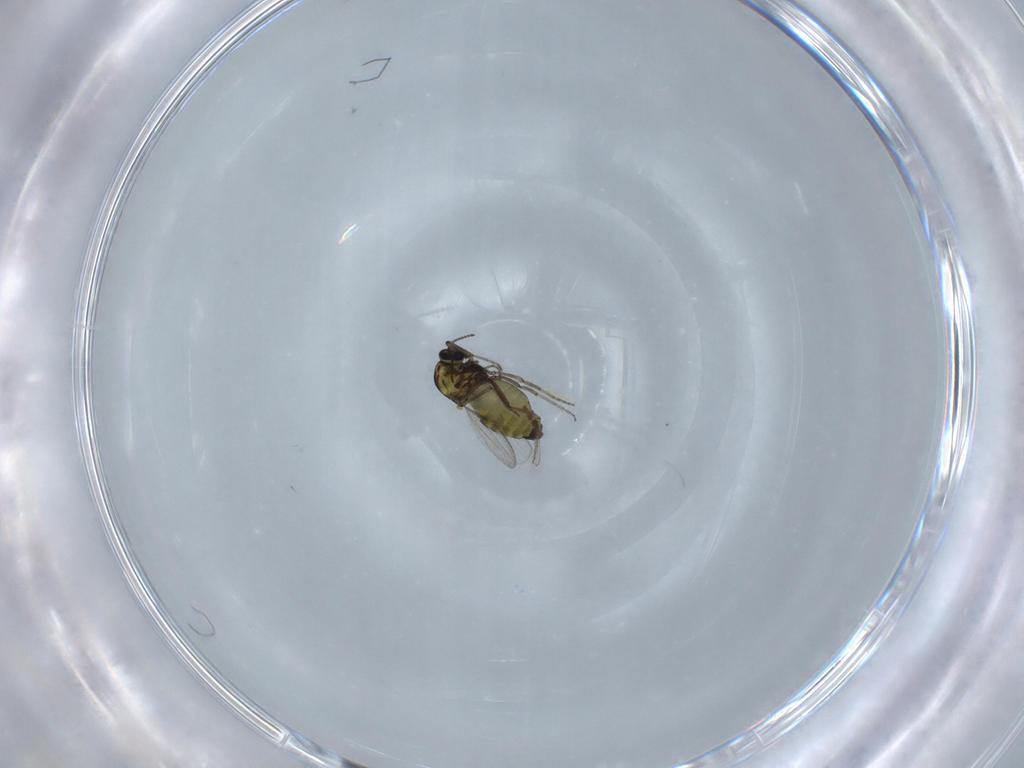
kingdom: Animalia
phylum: Arthropoda
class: Insecta
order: Diptera
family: Ceratopogonidae
